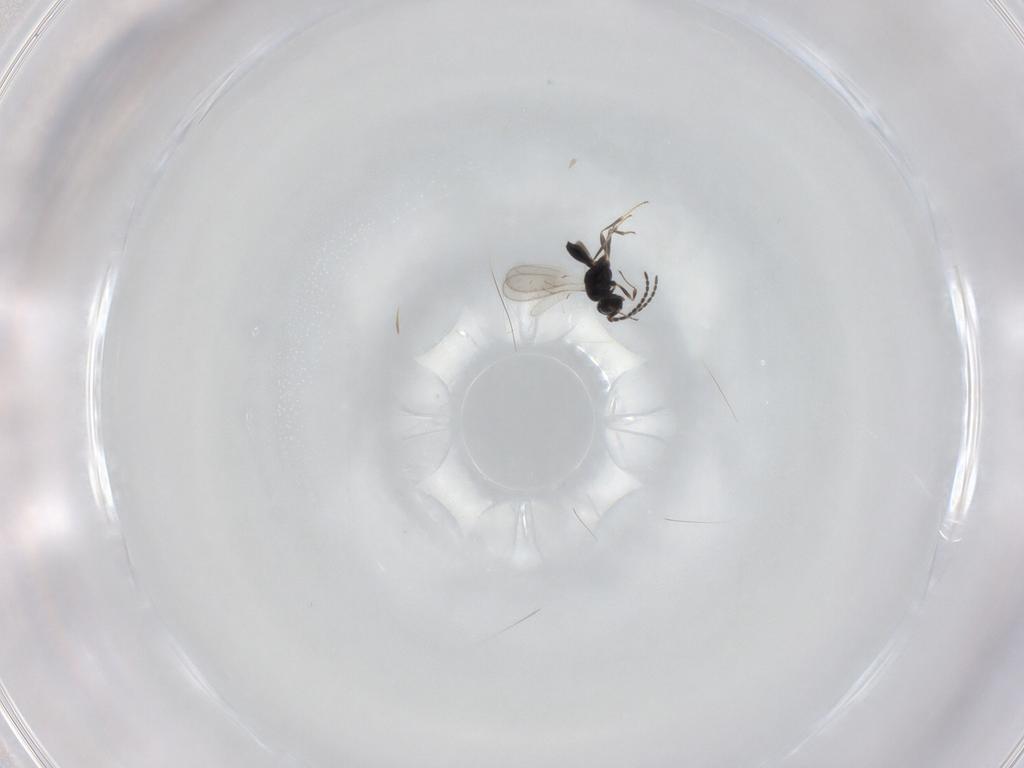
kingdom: Animalia
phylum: Arthropoda
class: Insecta
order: Hymenoptera
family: Scelionidae
